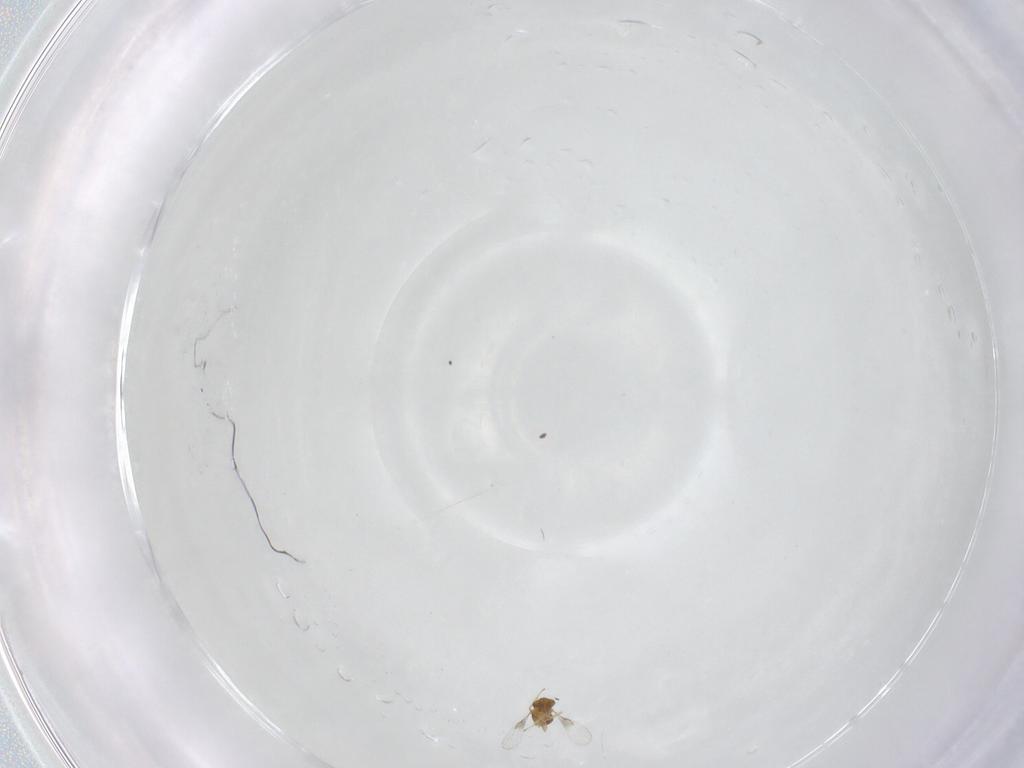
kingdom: Animalia
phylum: Arthropoda
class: Insecta
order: Hymenoptera
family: Trichogrammatidae
